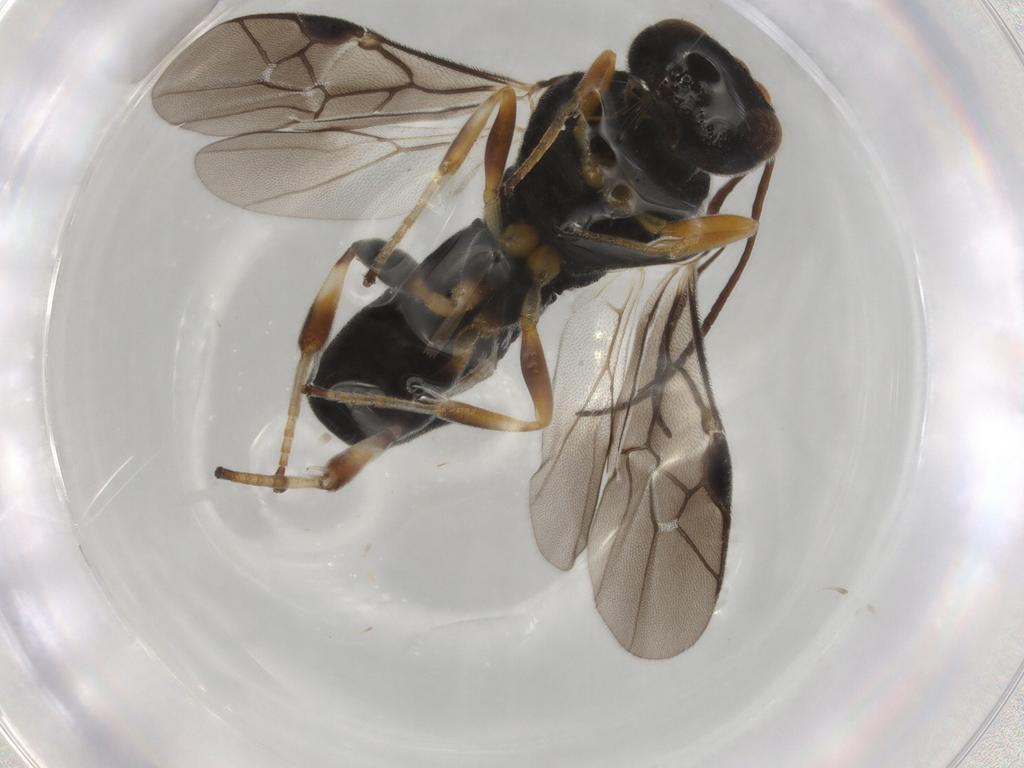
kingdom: Animalia
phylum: Arthropoda
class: Insecta
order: Hymenoptera
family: Braconidae
